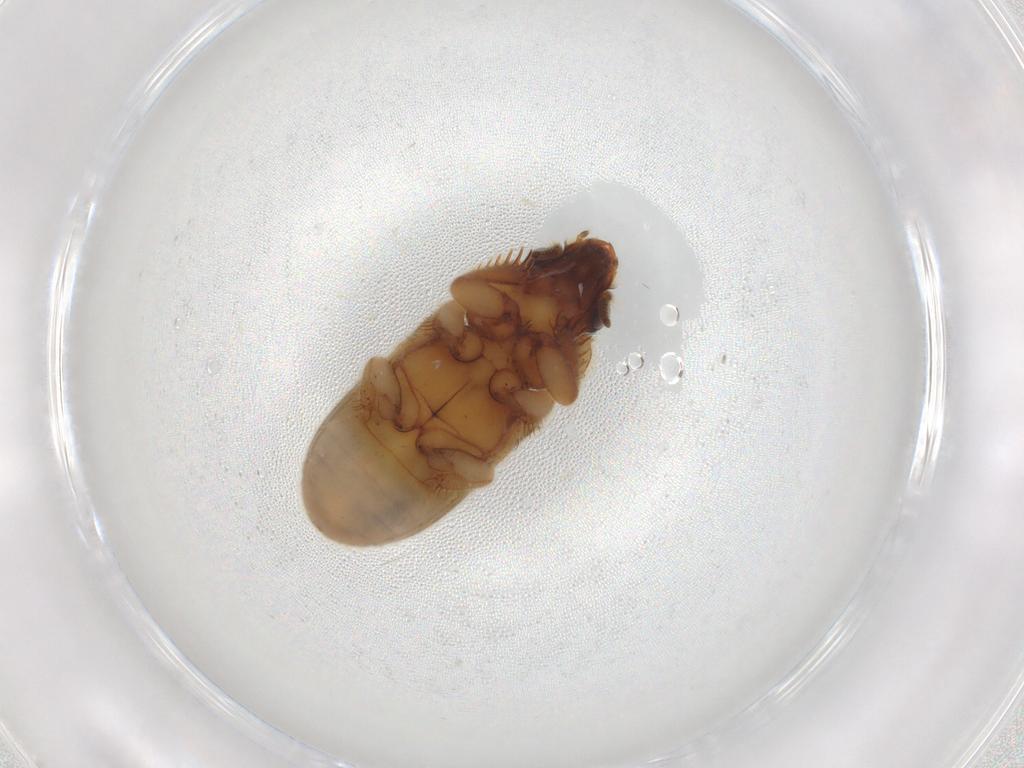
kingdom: Animalia
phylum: Arthropoda
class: Insecta
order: Coleoptera
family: Heteroceridae
